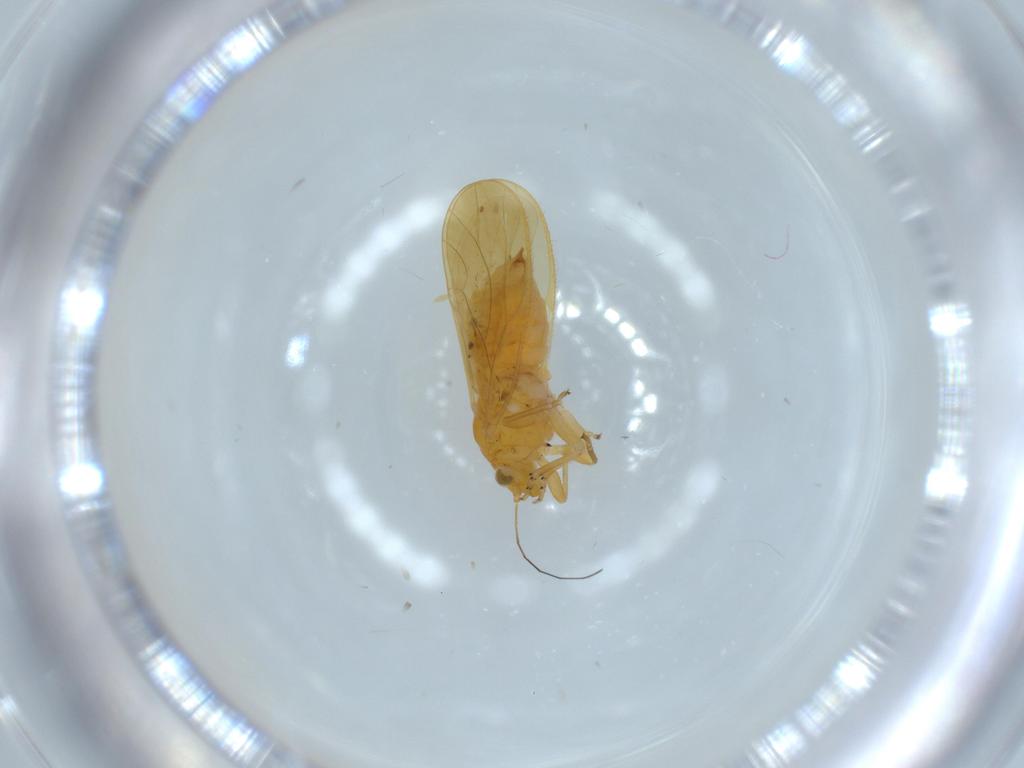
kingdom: Animalia
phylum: Arthropoda
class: Insecta
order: Hemiptera
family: Psyllidae
